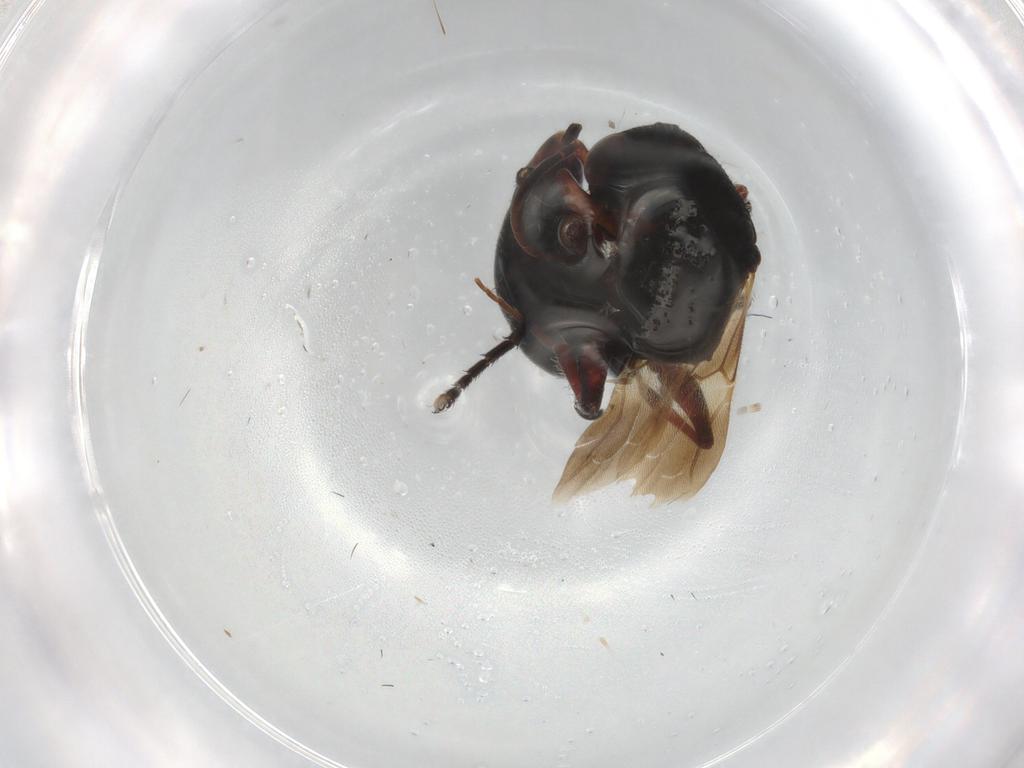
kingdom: Animalia
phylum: Arthropoda
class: Insecta
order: Hymenoptera
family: Bethylidae
